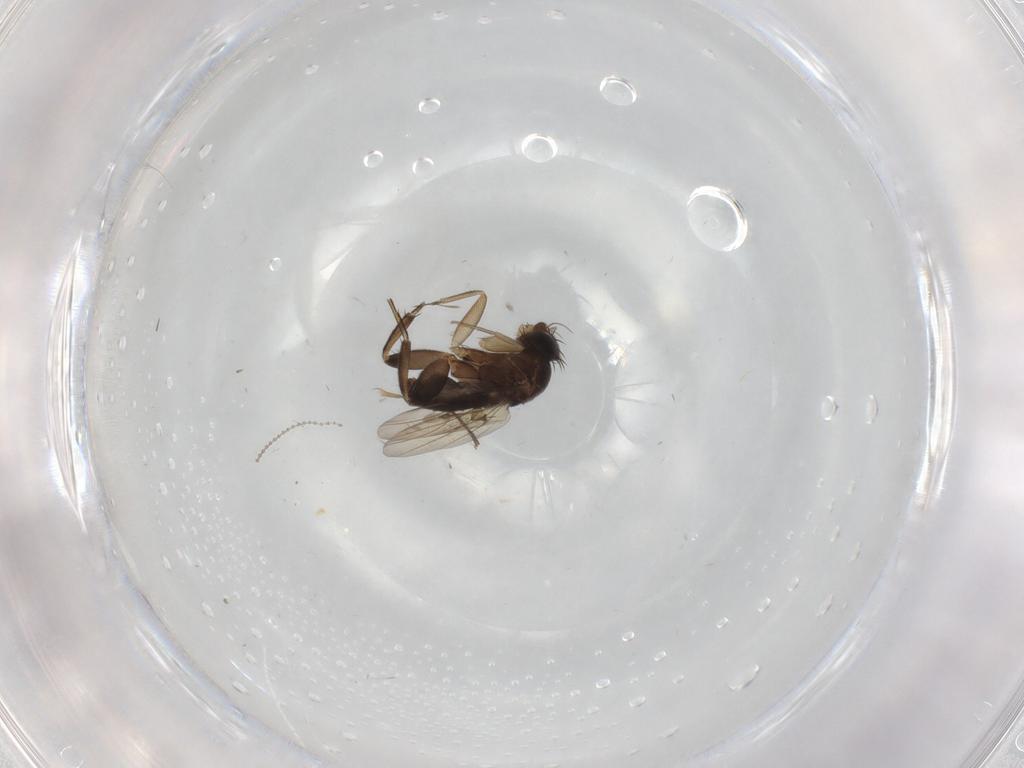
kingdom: Animalia
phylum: Arthropoda
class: Insecta
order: Diptera
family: Phoridae
